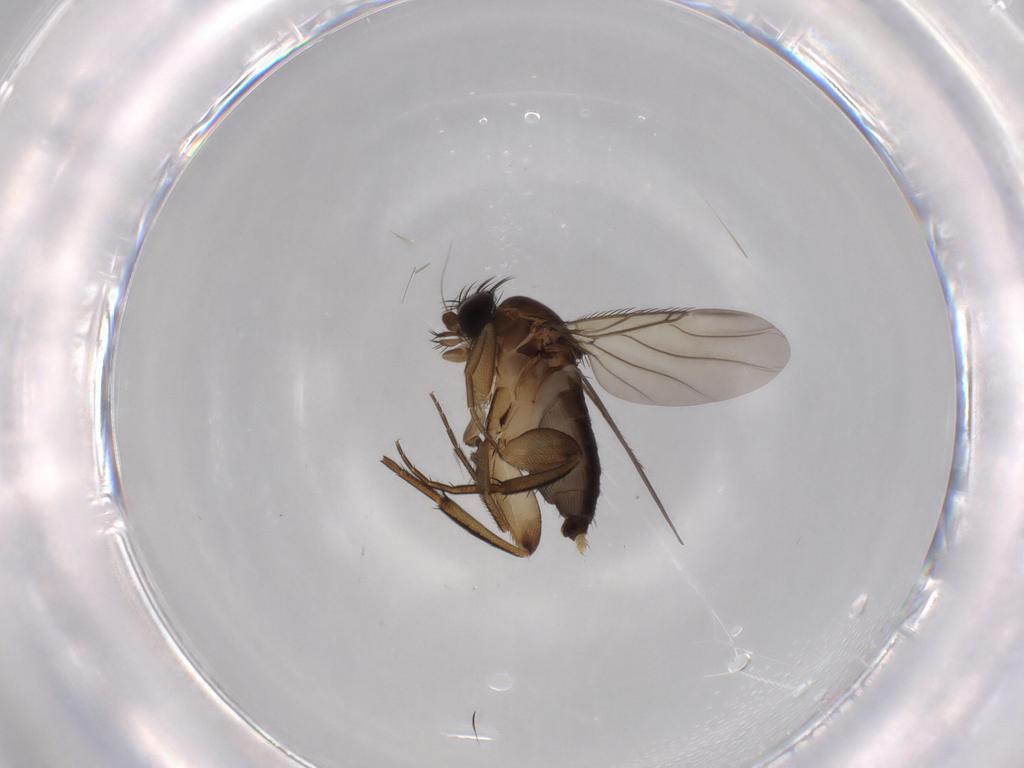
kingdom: Animalia
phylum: Arthropoda
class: Insecta
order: Diptera
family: Phoridae
